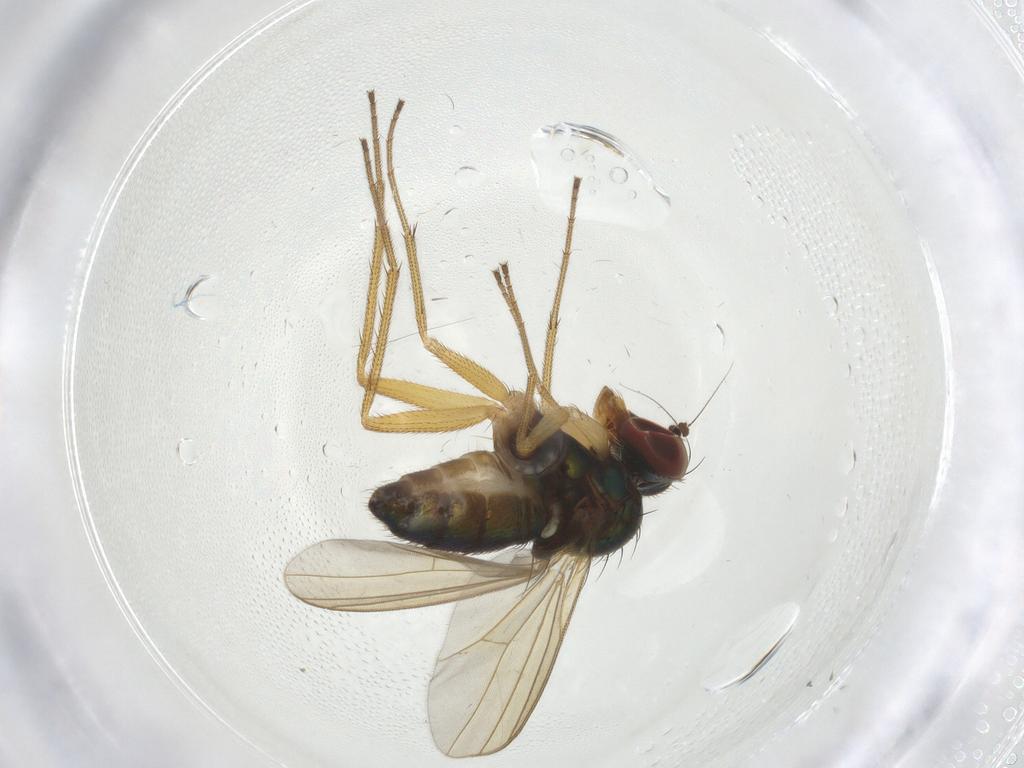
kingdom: Animalia
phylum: Arthropoda
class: Insecta
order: Diptera
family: Dolichopodidae
